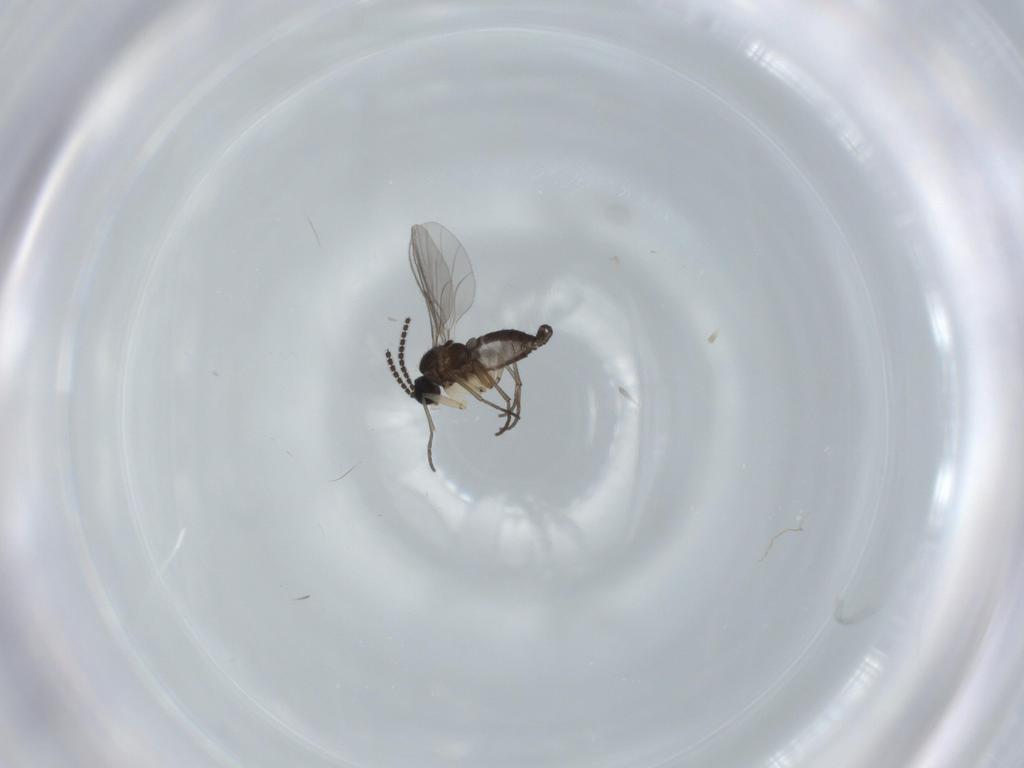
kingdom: Animalia
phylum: Arthropoda
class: Insecta
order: Diptera
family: Sciaridae
